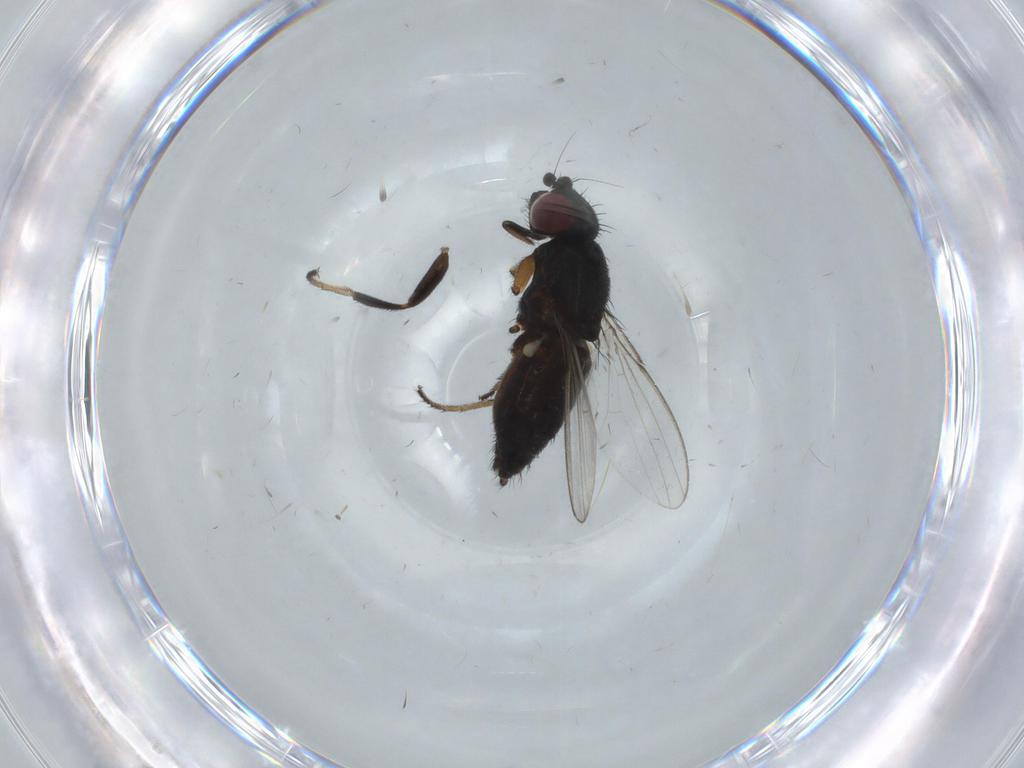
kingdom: Animalia
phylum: Arthropoda
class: Insecta
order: Diptera
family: Milichiidae
